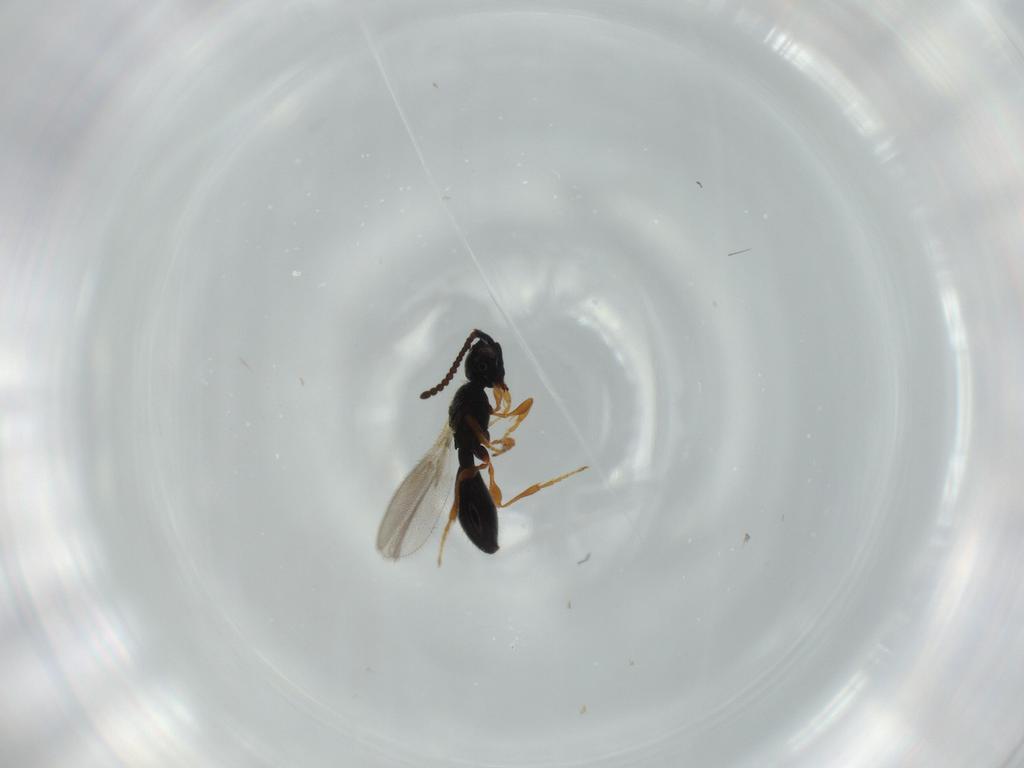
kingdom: Animalia
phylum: Arthropoda
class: Insecta
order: Hymenoptera
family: Diapriidae
